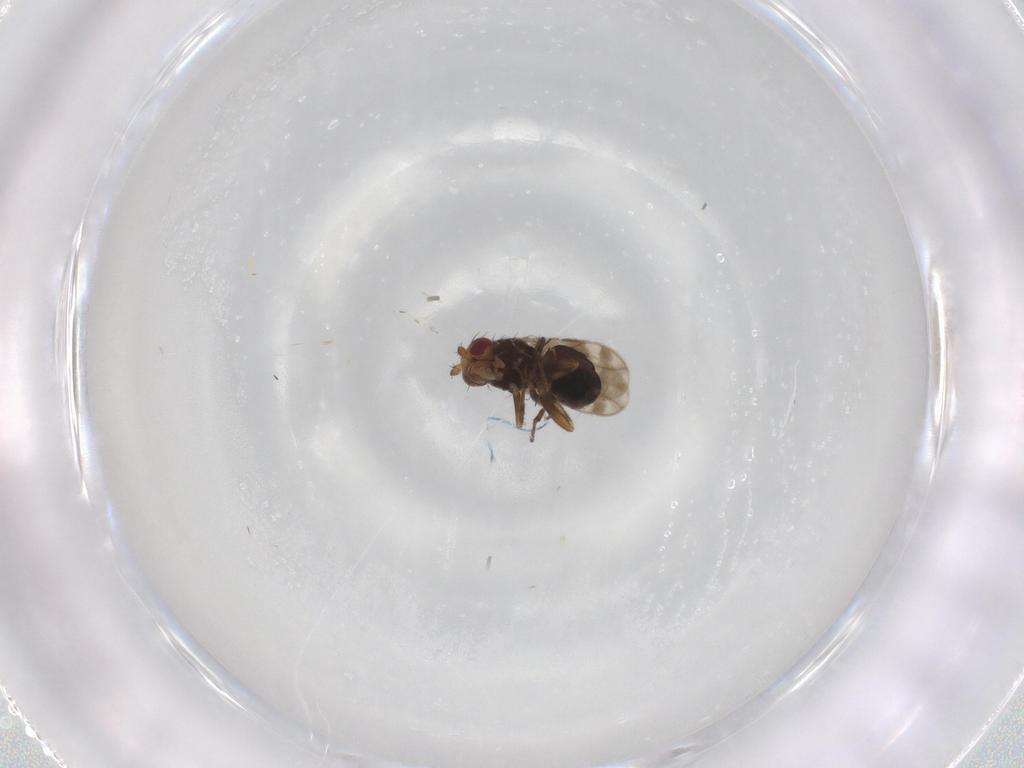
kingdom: Animalia
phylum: Arthropoda
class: Insecta
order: Diptera
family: Sphaeroceridae
